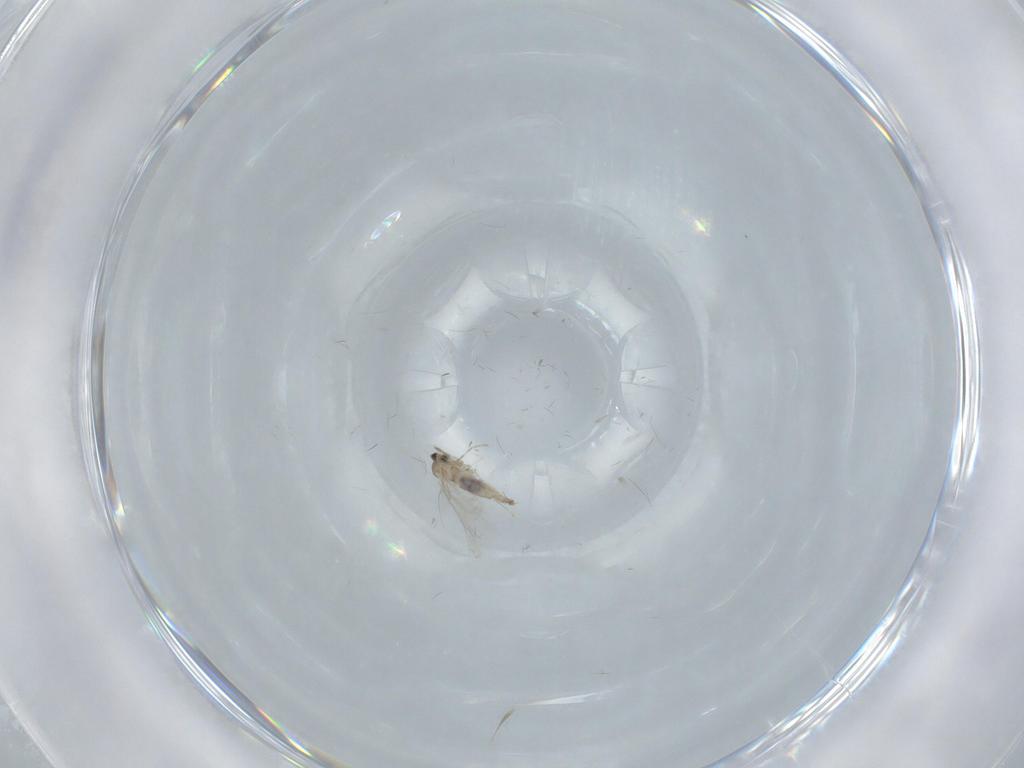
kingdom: Animalia
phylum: Arthropoda
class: Insecta
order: Diptera
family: Phoridae
